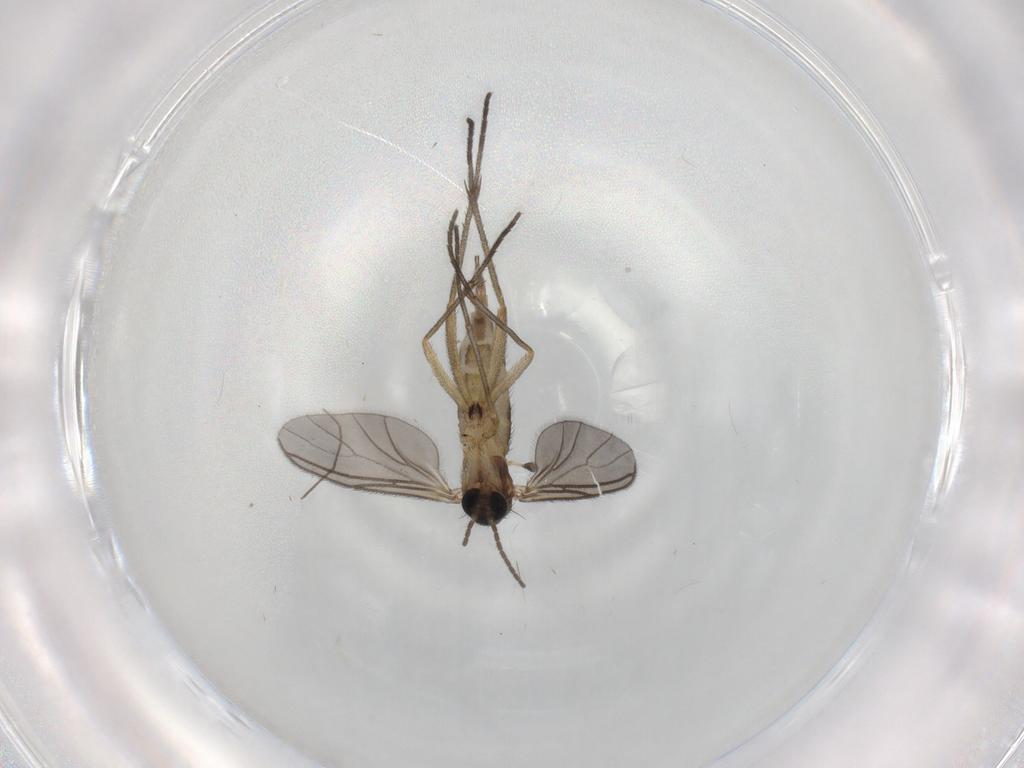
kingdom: Animalia
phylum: Arthropoda
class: Insecta
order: Diptera
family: Sciaridae
